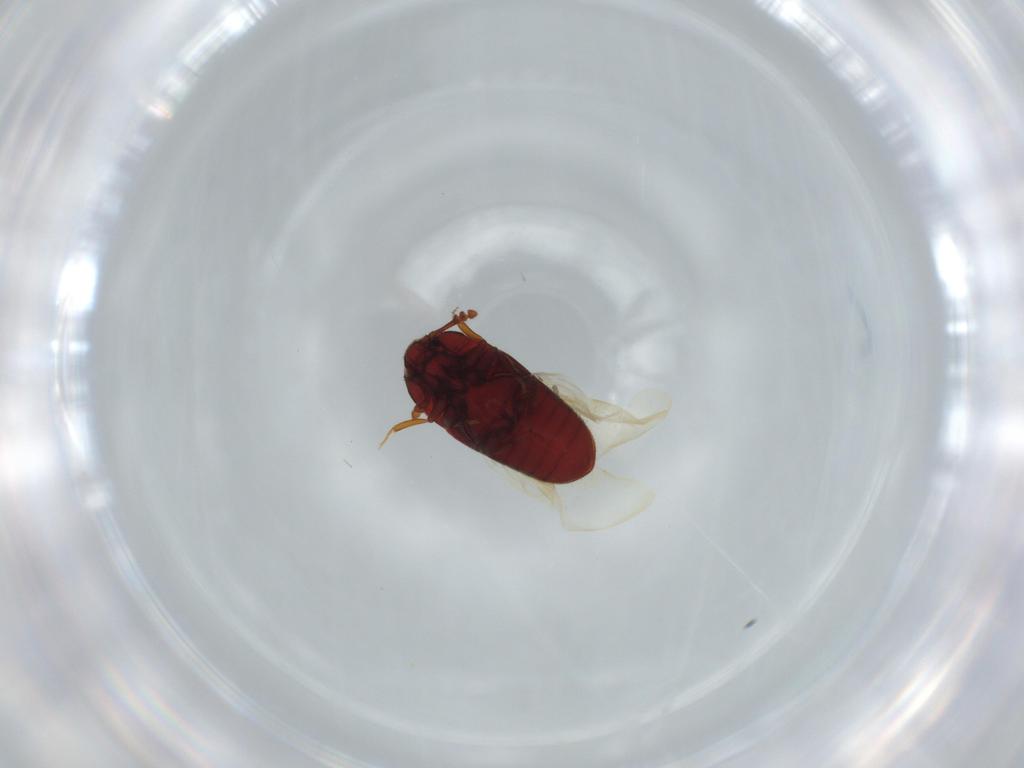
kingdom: Animalia
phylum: Arthropoda
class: Insecta
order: Coleoptera
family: Throscidae
